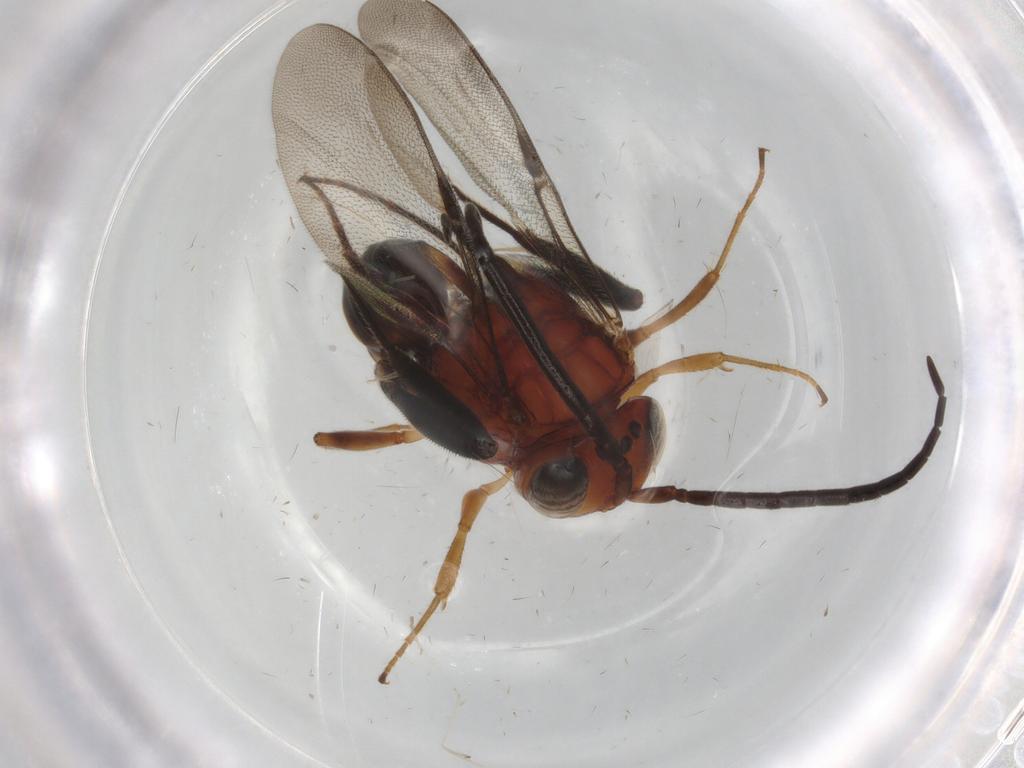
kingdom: Animalia
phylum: Arthropoda
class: Insecta
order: Hymenoptera
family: Evaniidae
